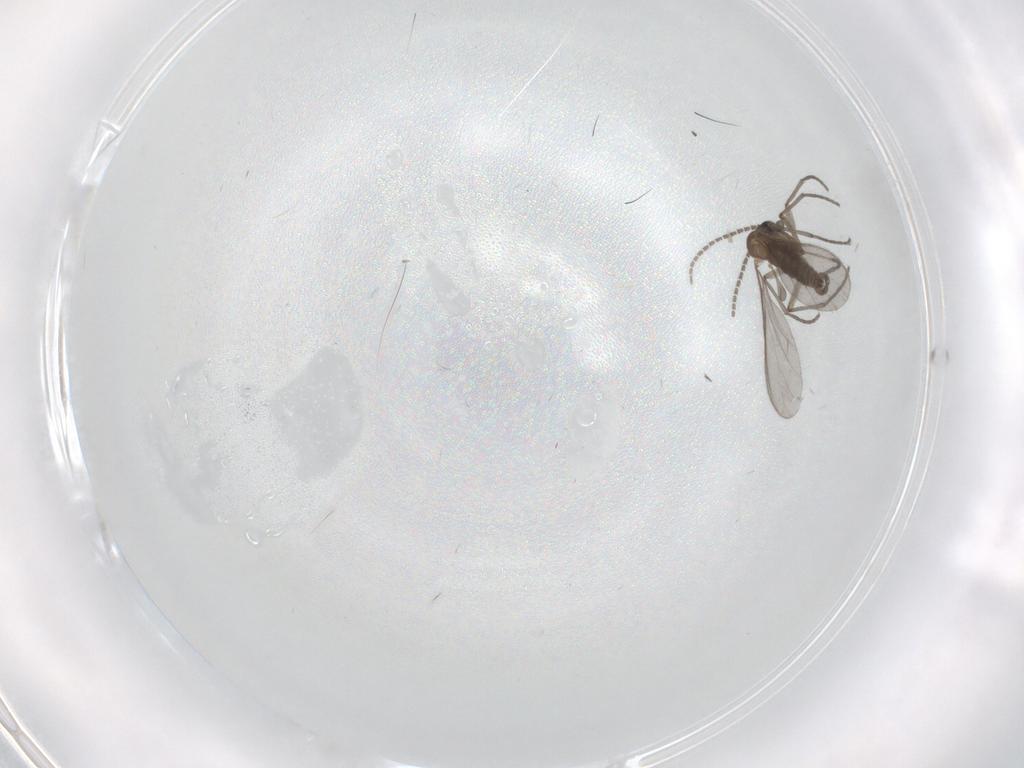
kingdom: Animalia
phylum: Arthropoda
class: Insecta
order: Diptera
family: Sciaridae
